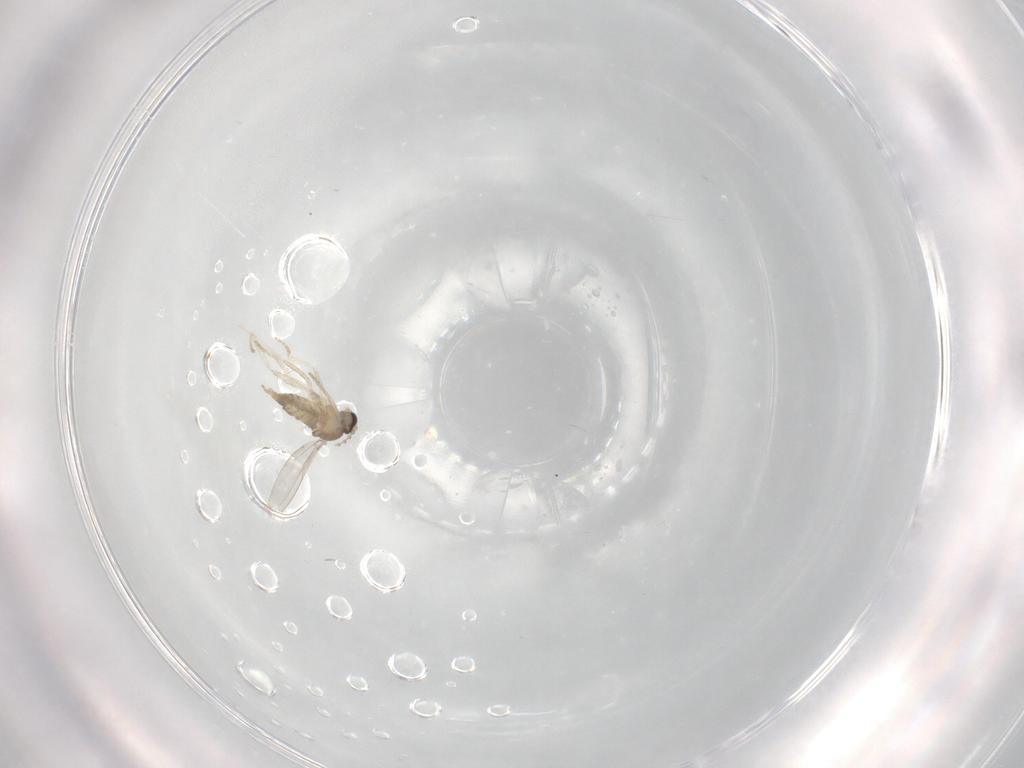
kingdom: Animalia
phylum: Arthropoda
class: Insecta
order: Diptera
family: Cecidomyiidae
